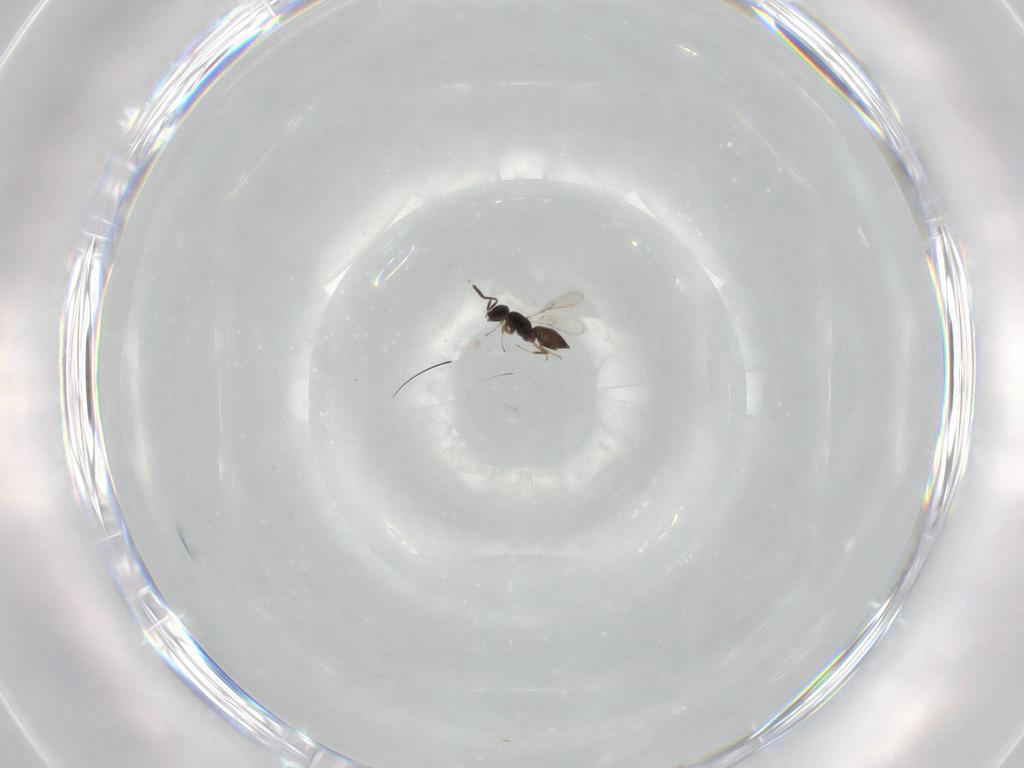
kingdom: Animalia
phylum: Arthropoda
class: Insecta
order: Hymenoptera
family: Scelionidae
